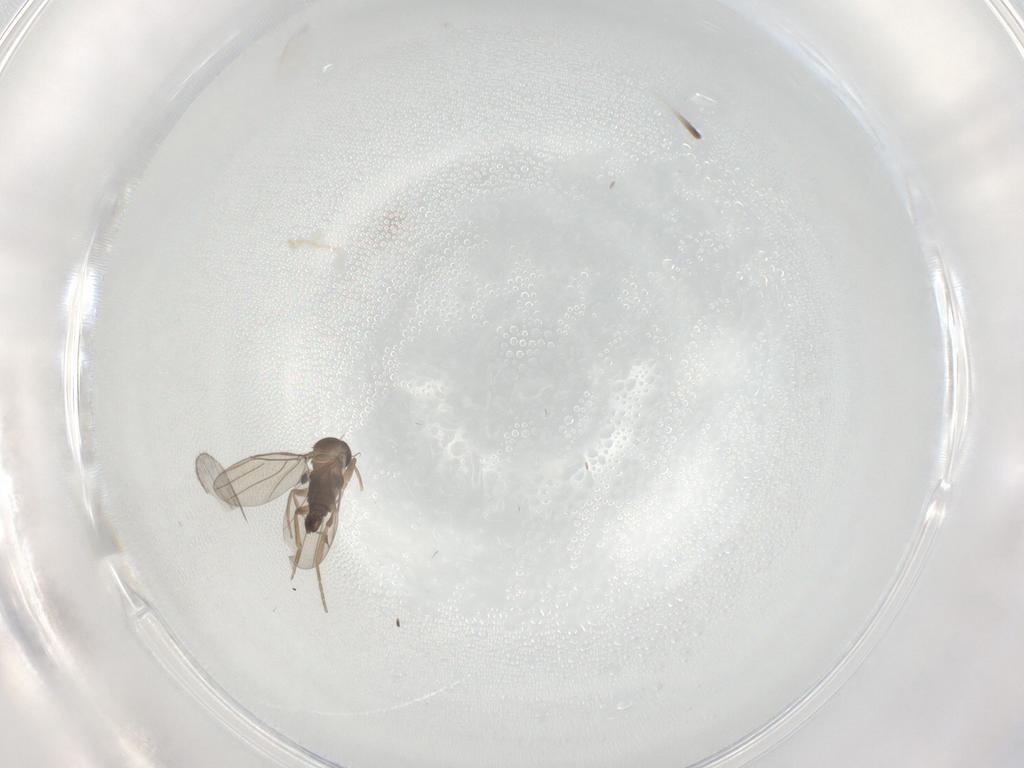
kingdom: Animalia
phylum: Arthropoda
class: Insecta
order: Diptera
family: Phoridae
